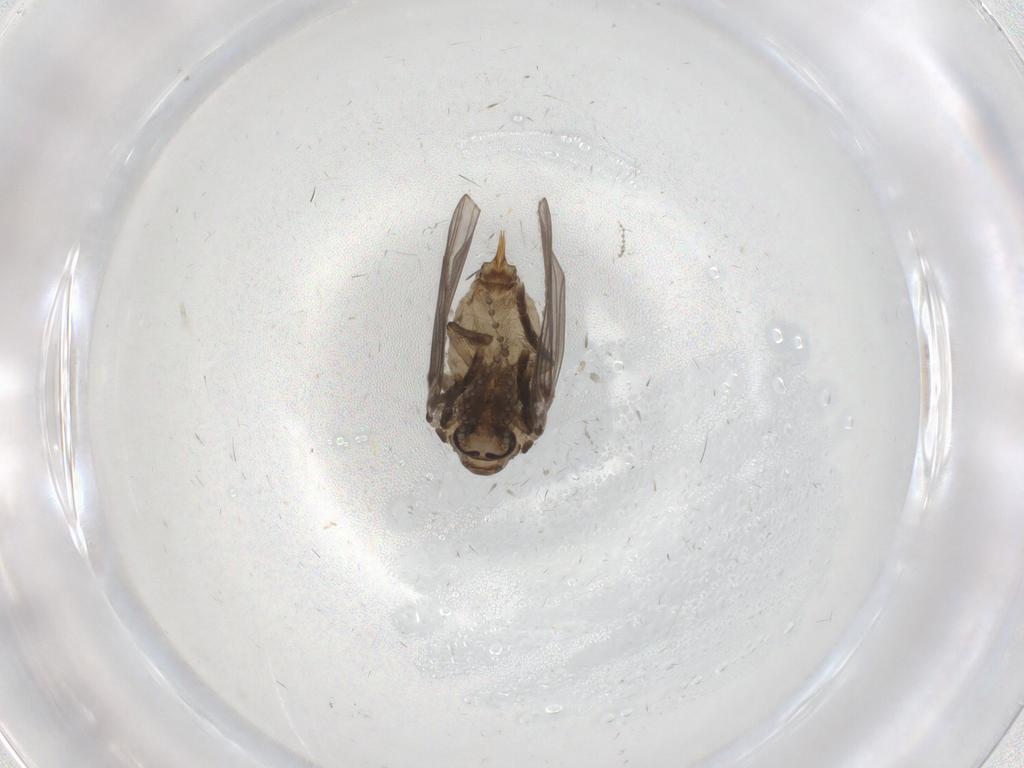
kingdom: Animalia
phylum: Arthropoda
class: Insecta
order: Diptera
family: Psychodidae
